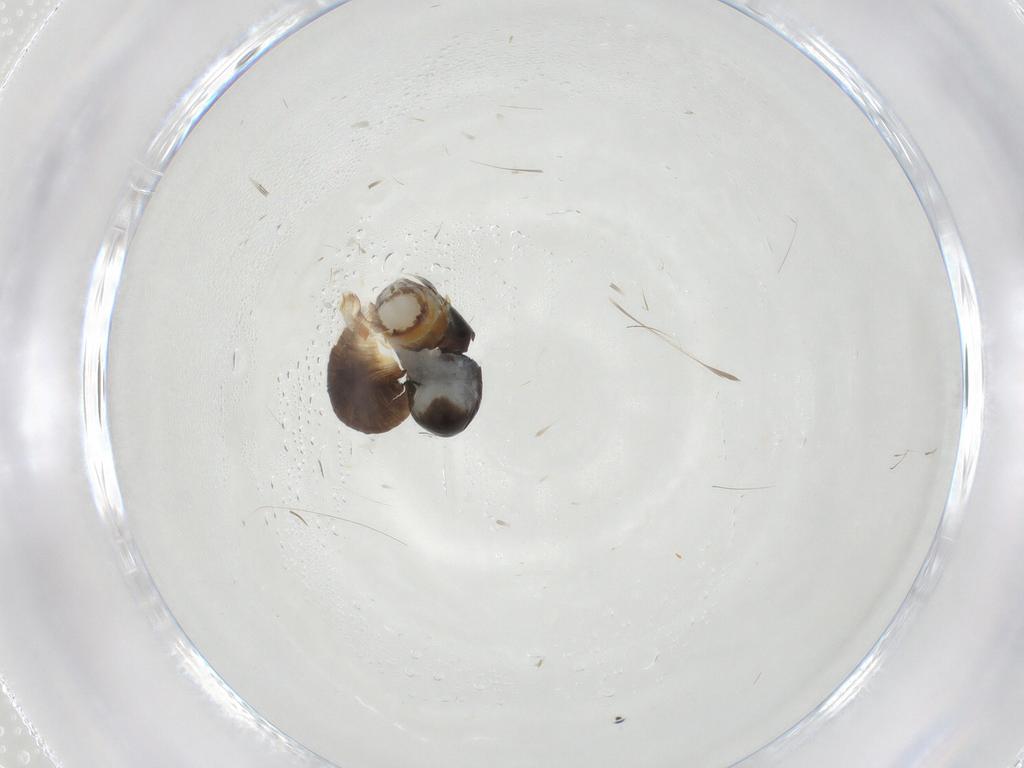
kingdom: Animalia
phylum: Arthropoda
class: Insecta
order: Hymenoptera
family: Dryinidae
